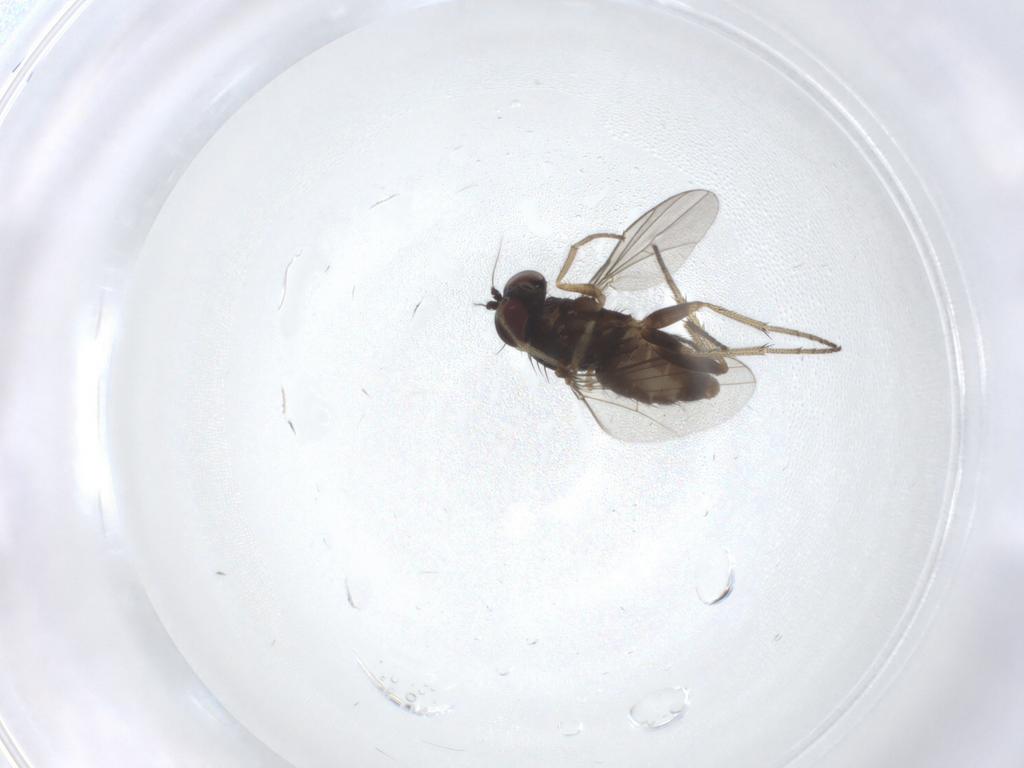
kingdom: Animalia
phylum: Arthropoda
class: Insecta
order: Diptera
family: Dolichopodidae
